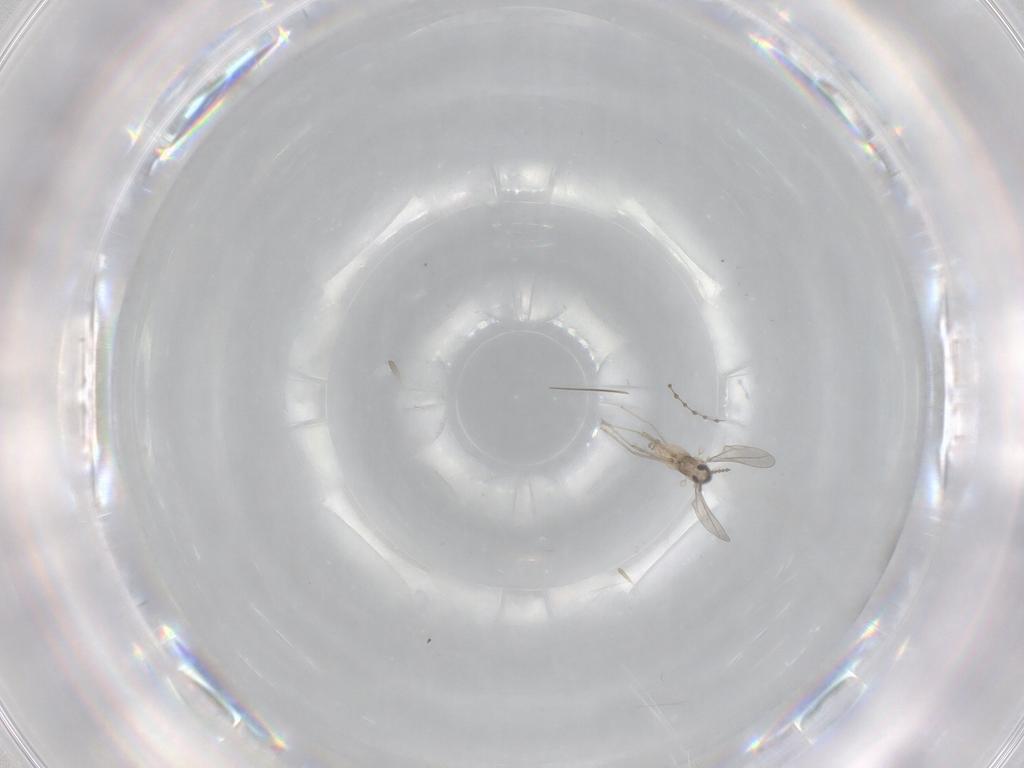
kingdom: Animalia
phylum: Arthropoda
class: Insecta
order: Diptera
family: Cecidomyiidae
